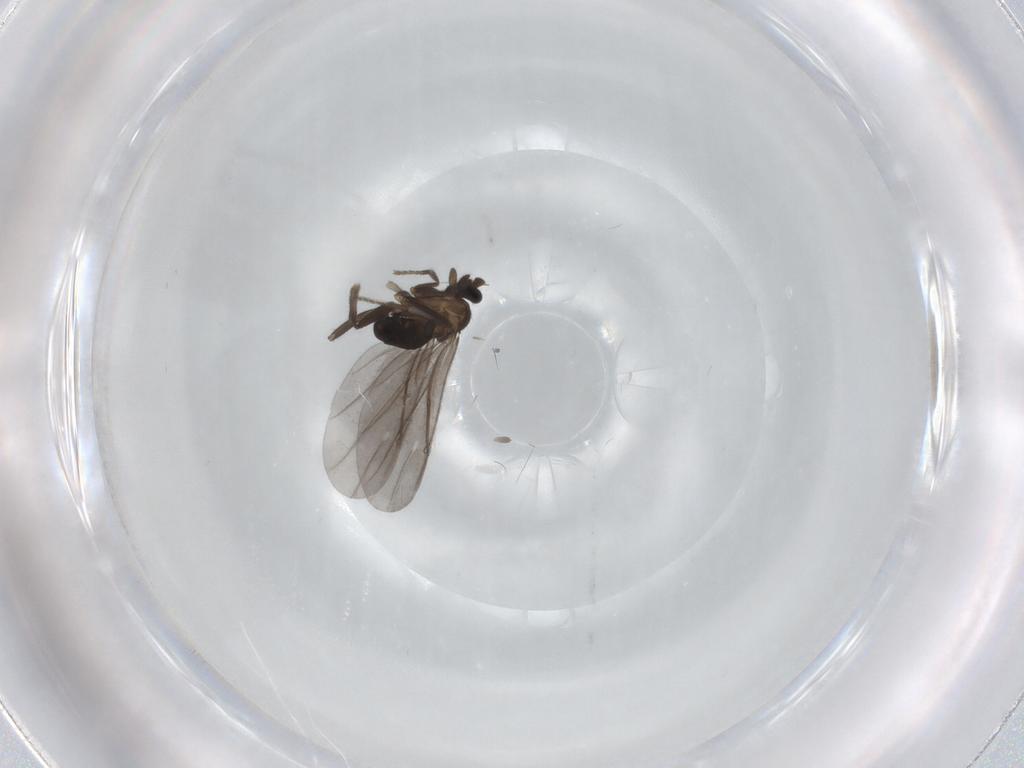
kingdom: Animalia
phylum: Arthropoda
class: Insecta
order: Diptera
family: Phoridae
